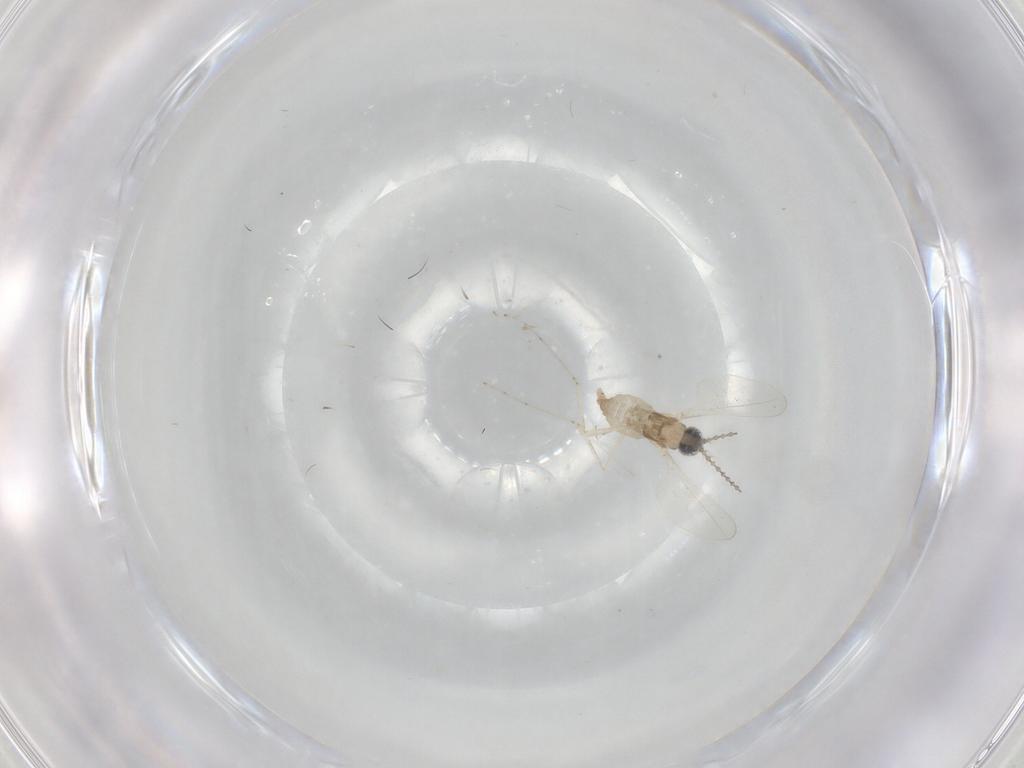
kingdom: Animalia
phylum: Arthropoda
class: Insecta
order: Diptera
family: Cecidomyiidae
